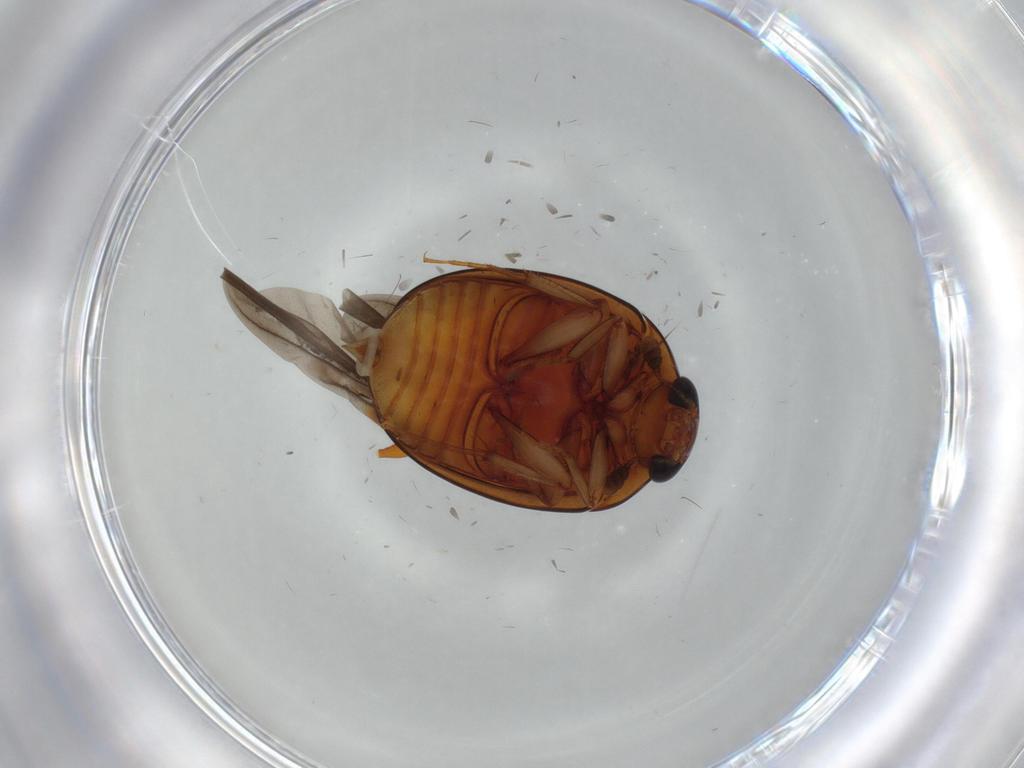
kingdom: Animalia
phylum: Arthropoda
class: Insecta
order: Coleoptera
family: Nitidulidae
